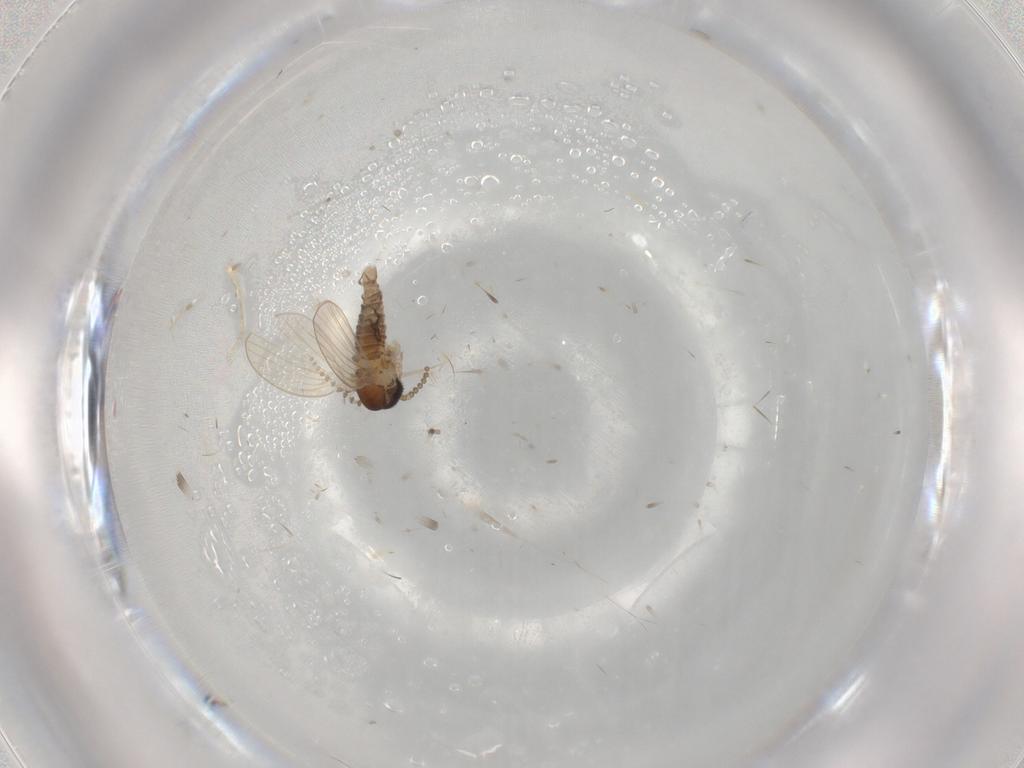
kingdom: Animalia
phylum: Arthropoda
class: Insecta
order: Diptera
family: Psychodidae
